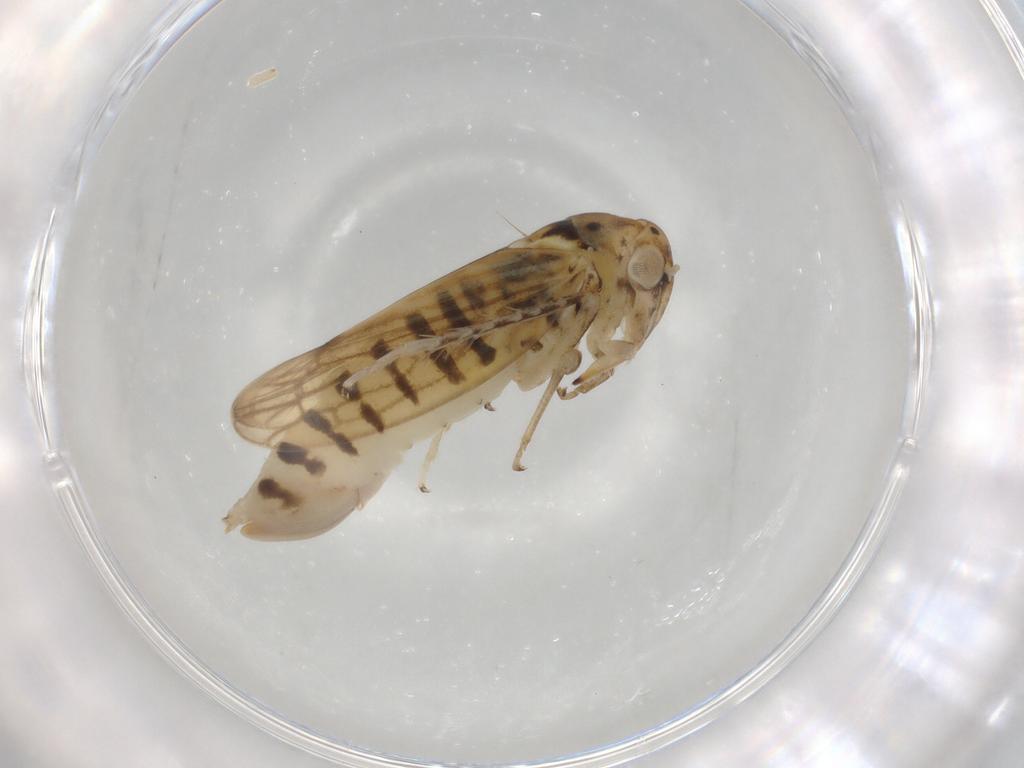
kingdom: Animalia
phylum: Arthropoda
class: Insecta
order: Hemiptera
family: Cicadellidae
